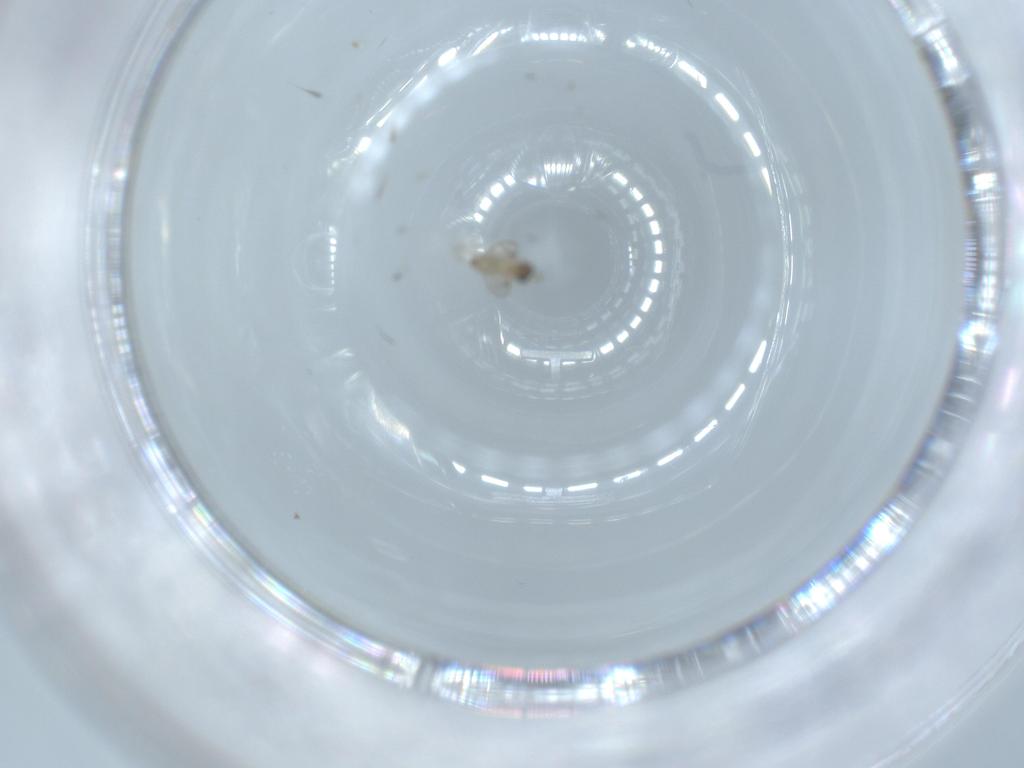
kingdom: Animalia
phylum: Arthropoda
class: Insecta
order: Diptera
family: Cecidomyiidae
